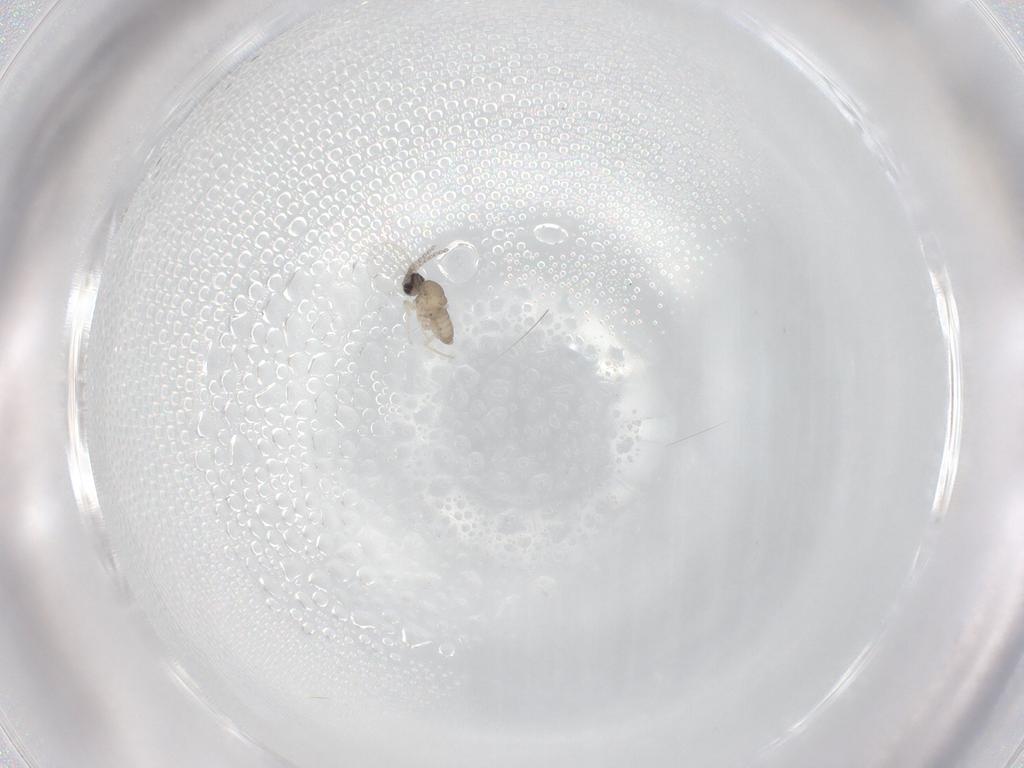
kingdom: Animalia
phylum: Arthropoda
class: Insecta
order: Diptera
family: Cecidomyiidae
